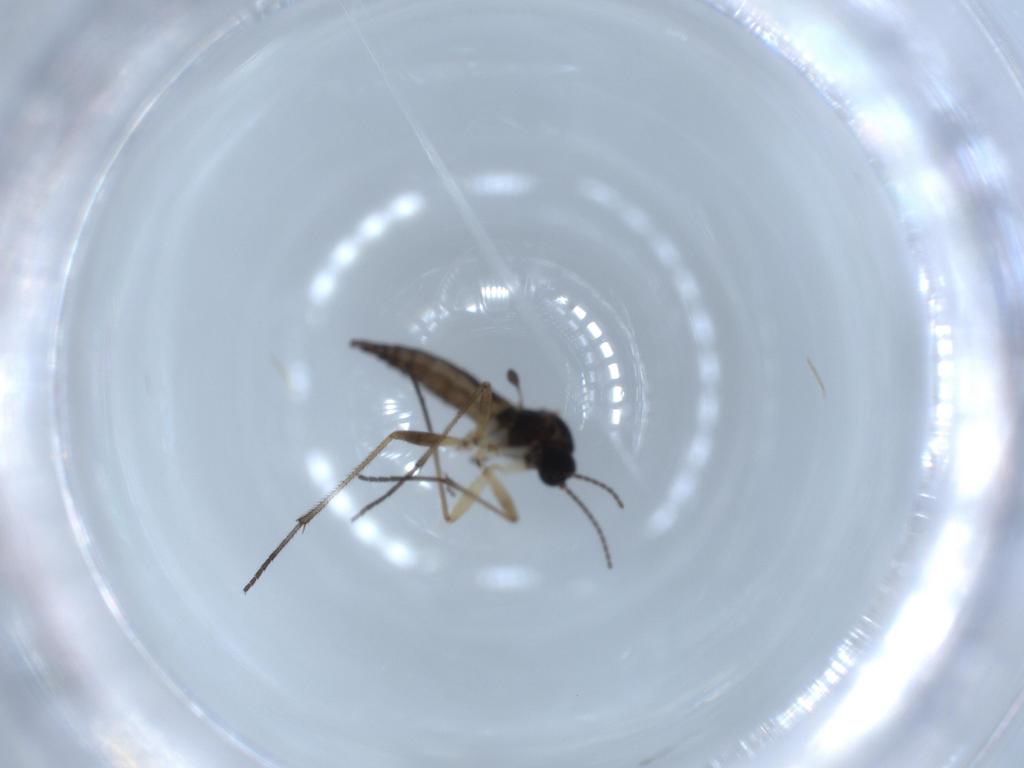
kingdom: Animalia
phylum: Arthropoda
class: Insecta
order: Diptera
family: Sciaridae
